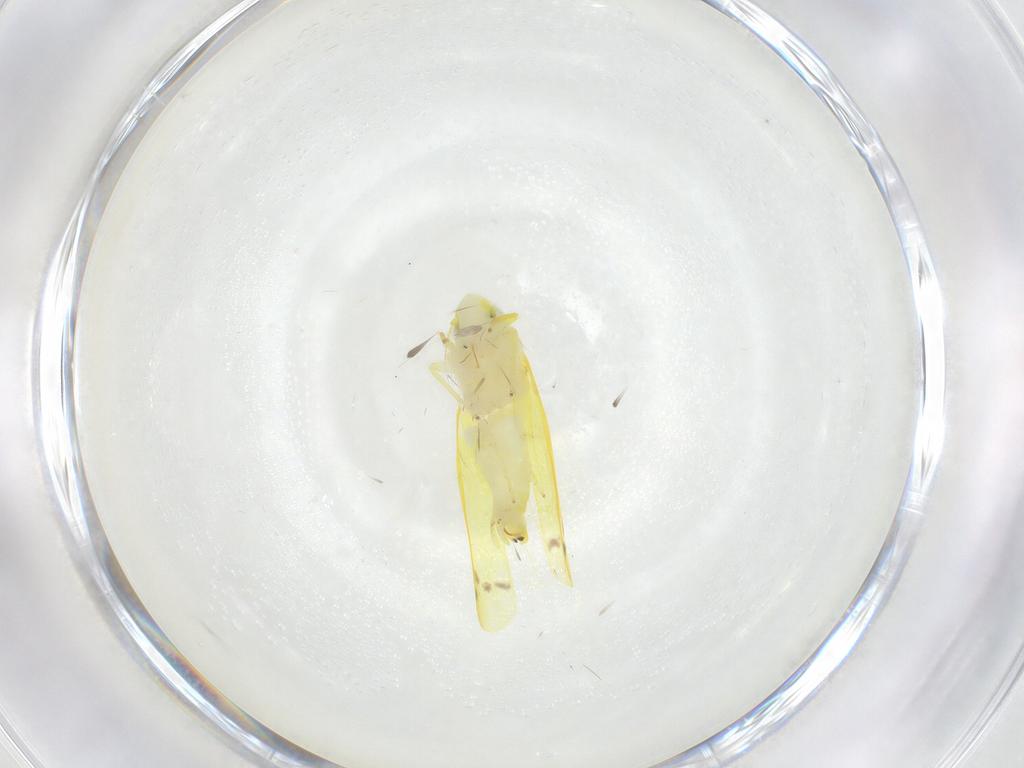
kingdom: Animalia
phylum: Arthropoda
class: Insecta
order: Hemiptera
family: Cicadellidae
